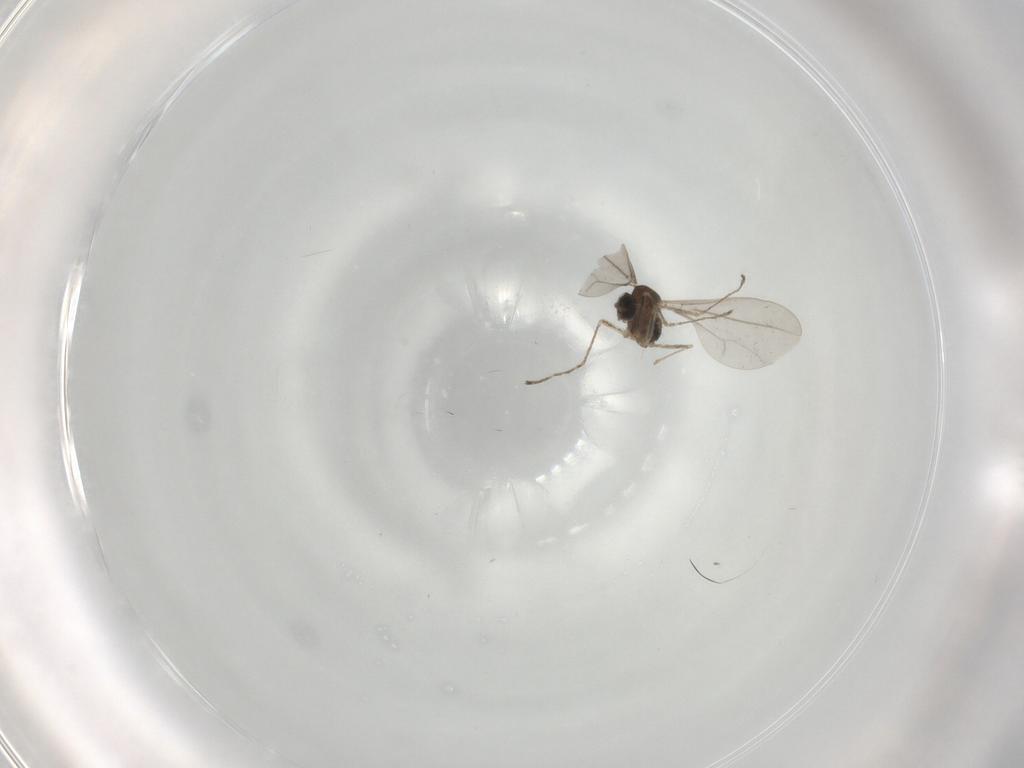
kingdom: Animalia
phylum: Arthropoda
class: Insecta
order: Diptera
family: Cecidomyiidae
